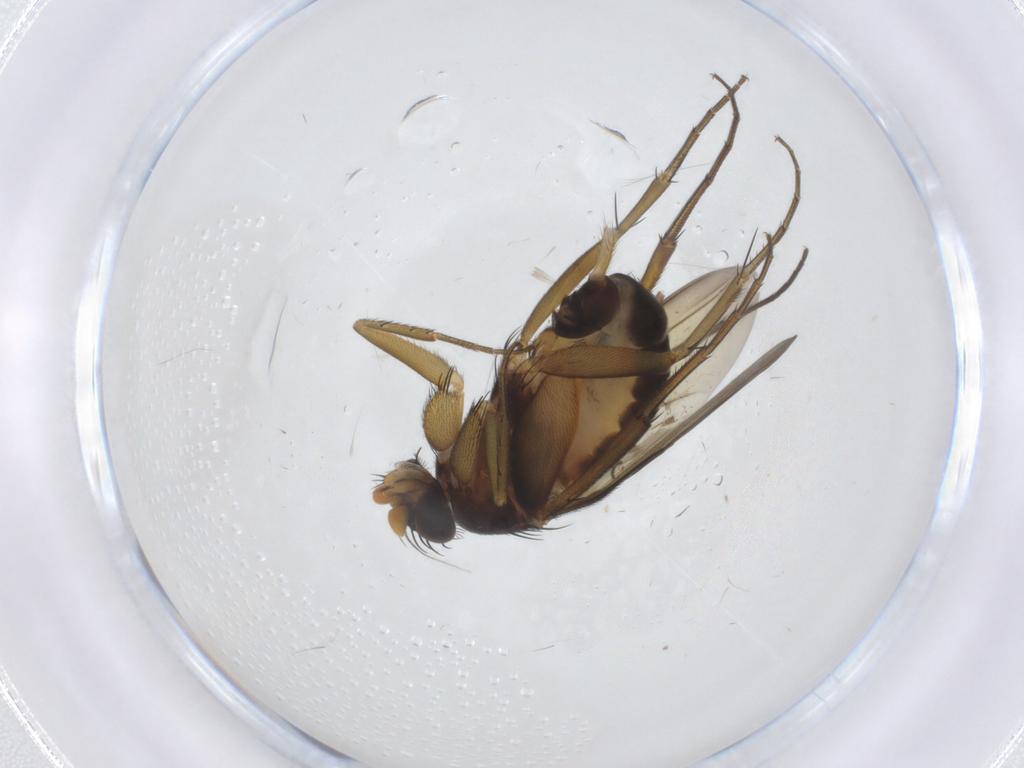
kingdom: Animalia
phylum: Arthropoda
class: Insecta
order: Diptera
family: Phoridae
